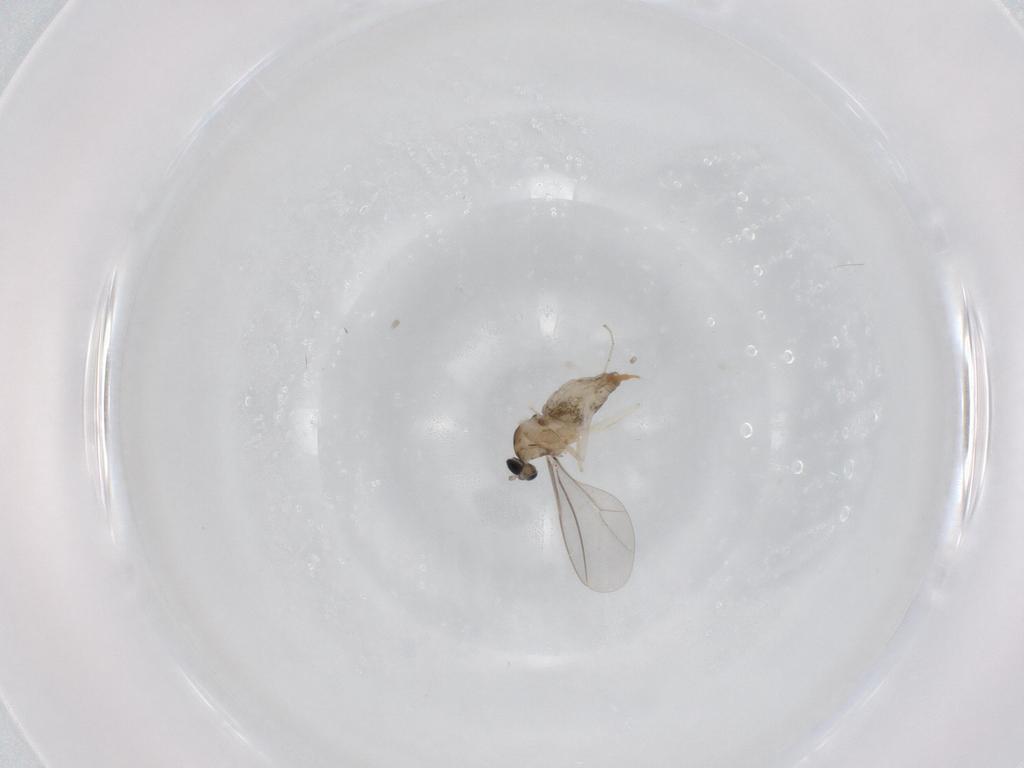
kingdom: Animalia
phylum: Arthropoda
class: Insecta
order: Diptera
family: Cecidomyiidae
